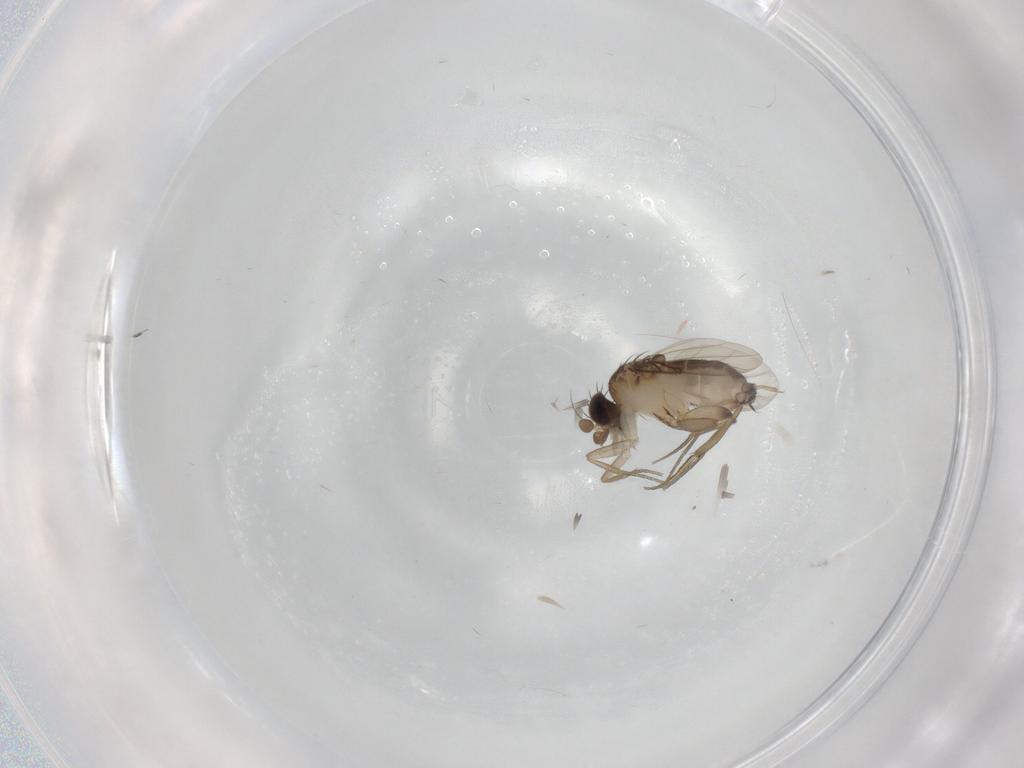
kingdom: Animalia
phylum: Arthropoda
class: Insecta
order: Diptera
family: Phoridae
